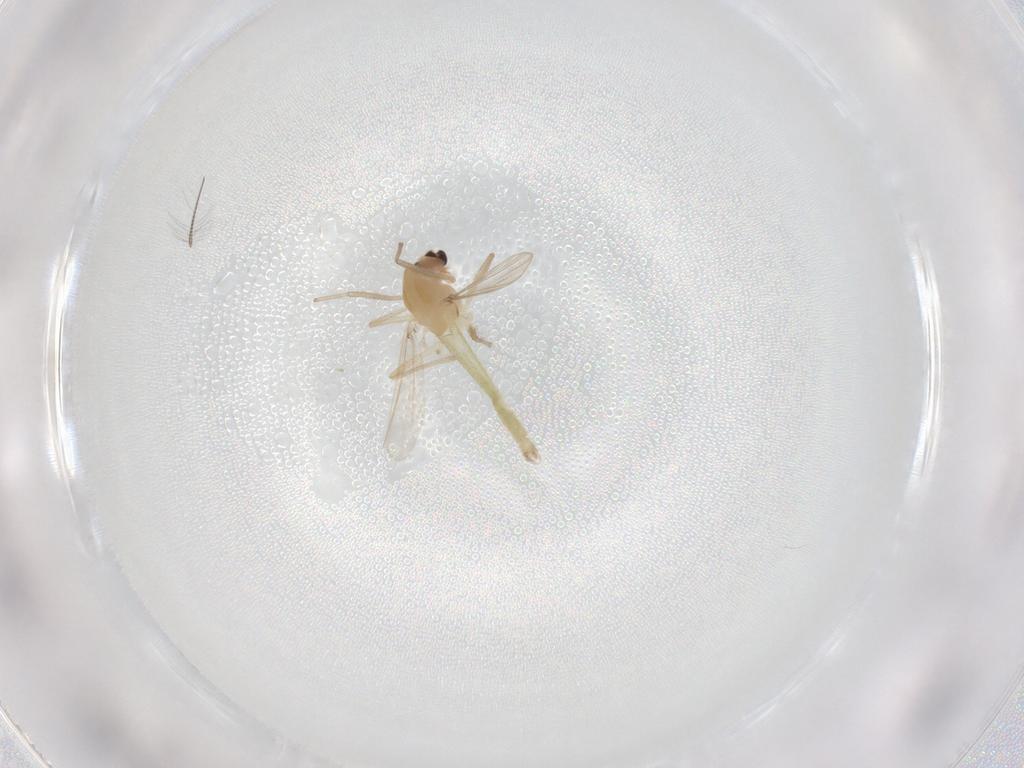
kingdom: Animalia
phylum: Arthropoda
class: Insecta
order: Diptera
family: Chironomidae
